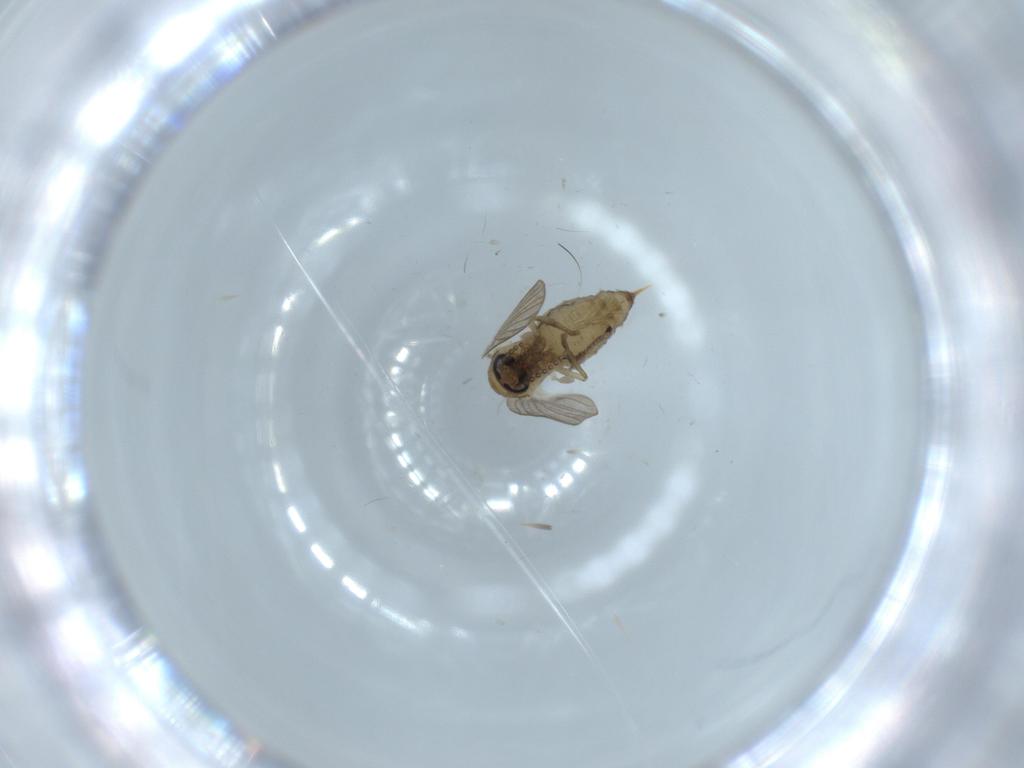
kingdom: Animalia
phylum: Arthropoda
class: Insecta
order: Diptera
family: Psychodidae
